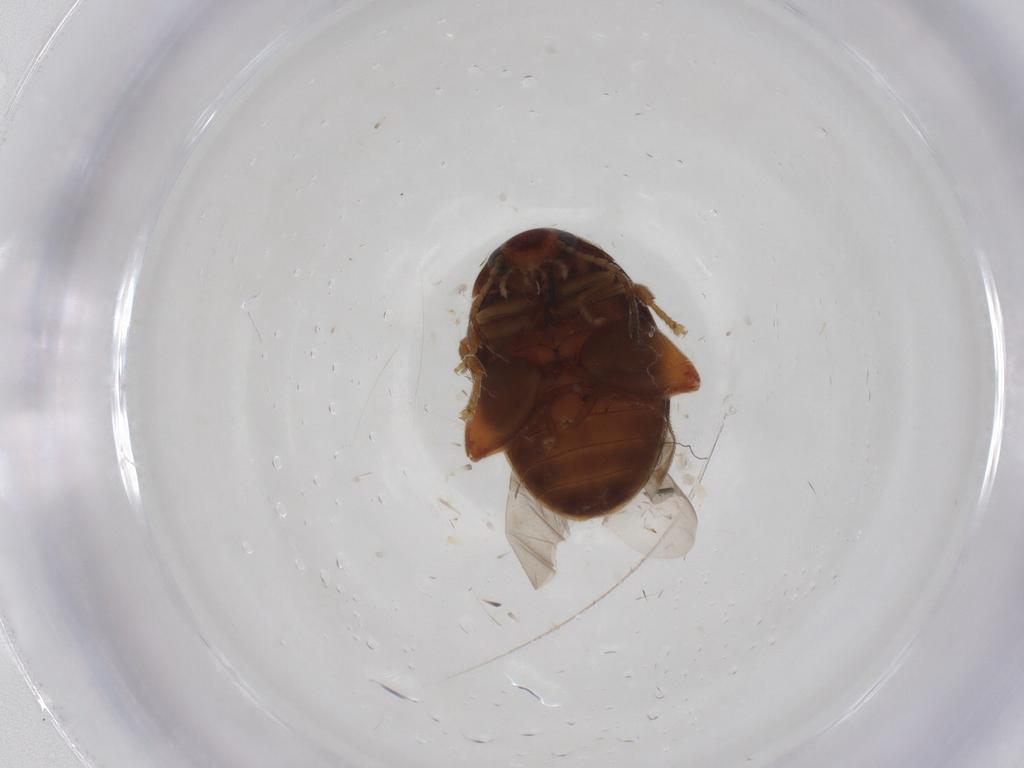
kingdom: Animalia
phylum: Arthropoda
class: Insecta
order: Coleoptera
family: Scirtidae
